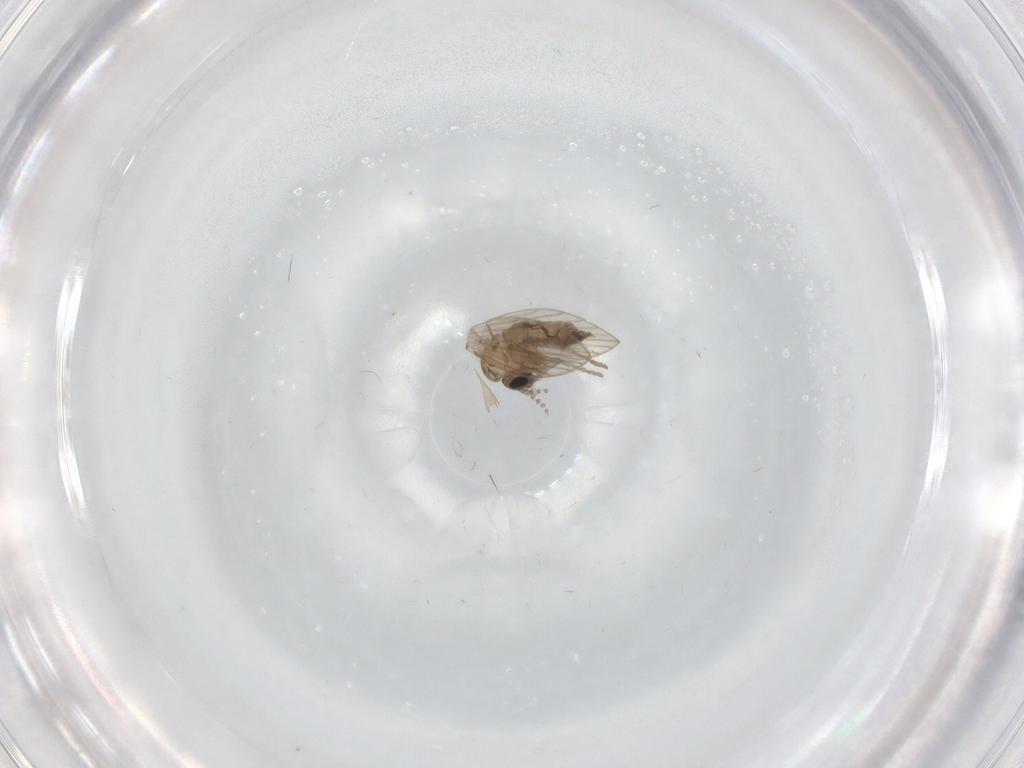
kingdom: Animalia
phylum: Arthropoda
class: Insecta
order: Diptera
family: Psychodidae
